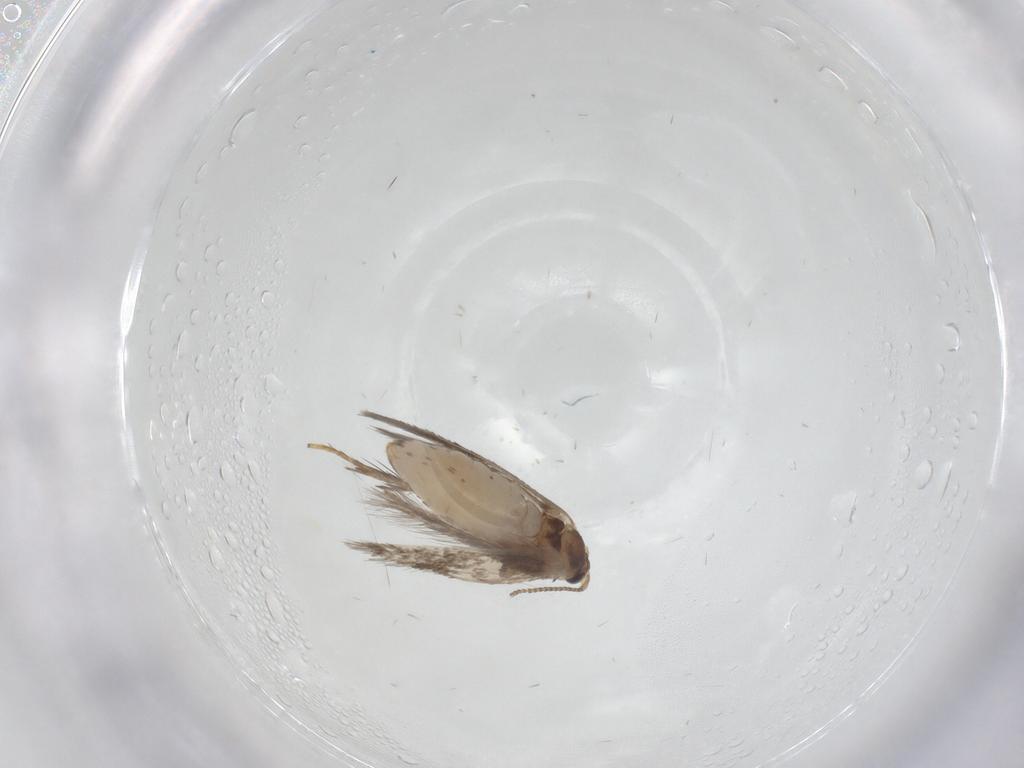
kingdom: Animalia
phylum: Arthropoda
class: Insecta
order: Lepidoptera
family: Nepticulidae
